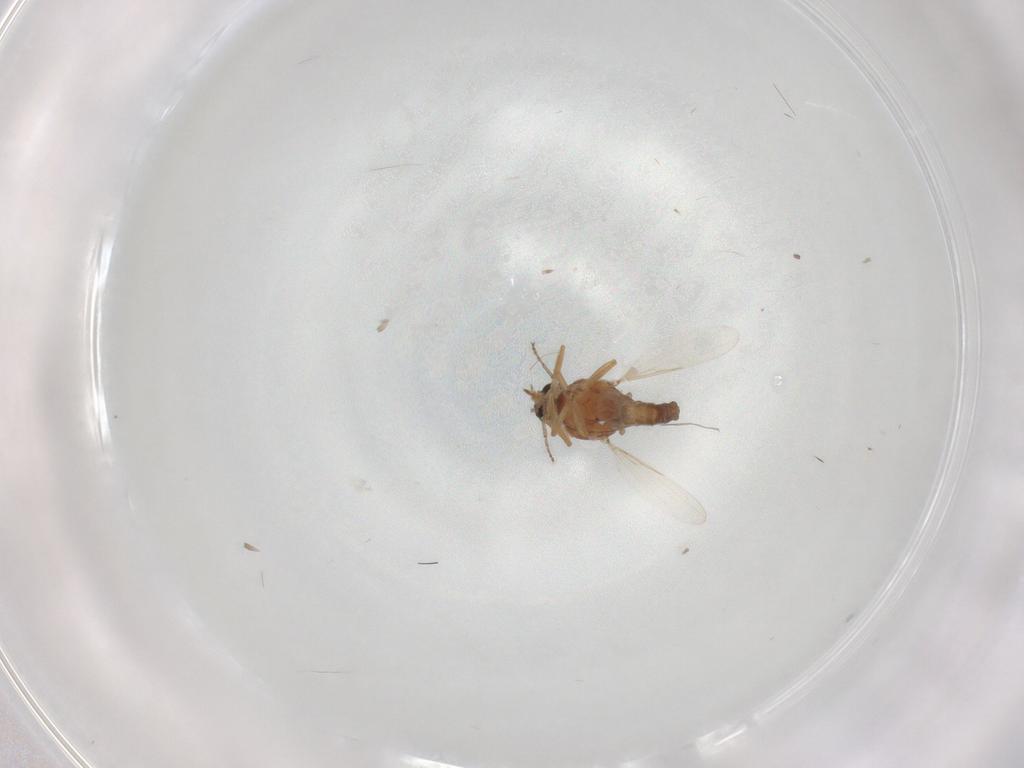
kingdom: Animalia
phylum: Arthropoda
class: Insecta
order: Diptera
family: Ceratopogonidae
